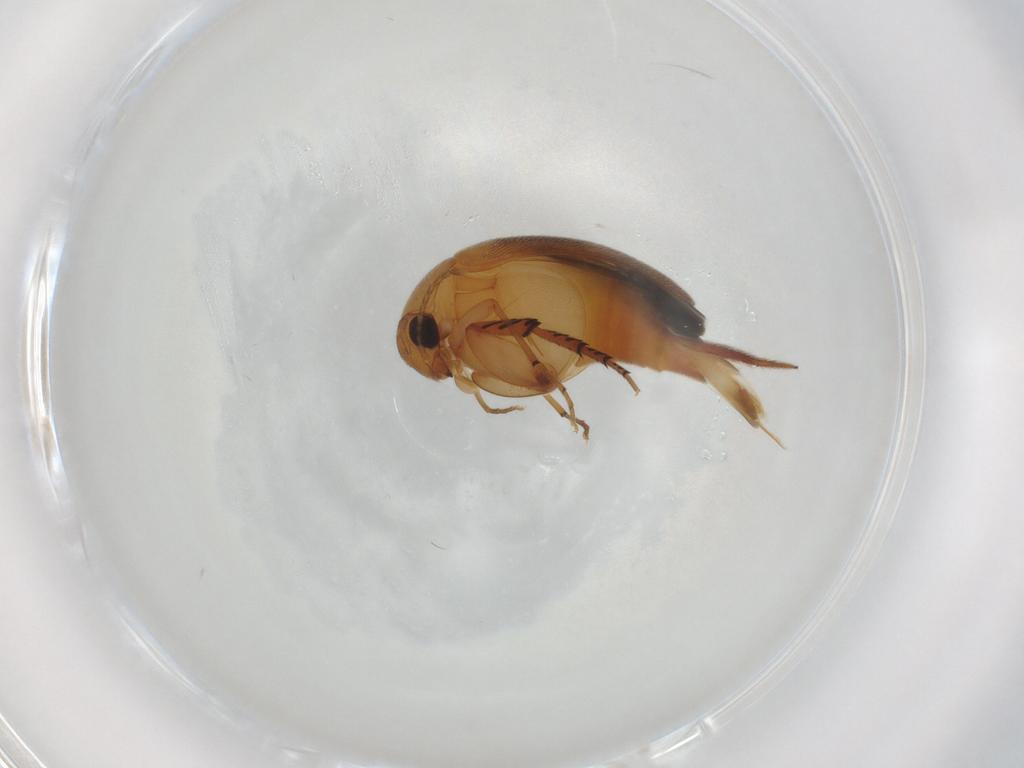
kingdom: Animalia
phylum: Arthropoda
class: Insecta
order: Coleoptera
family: Mordellidae
